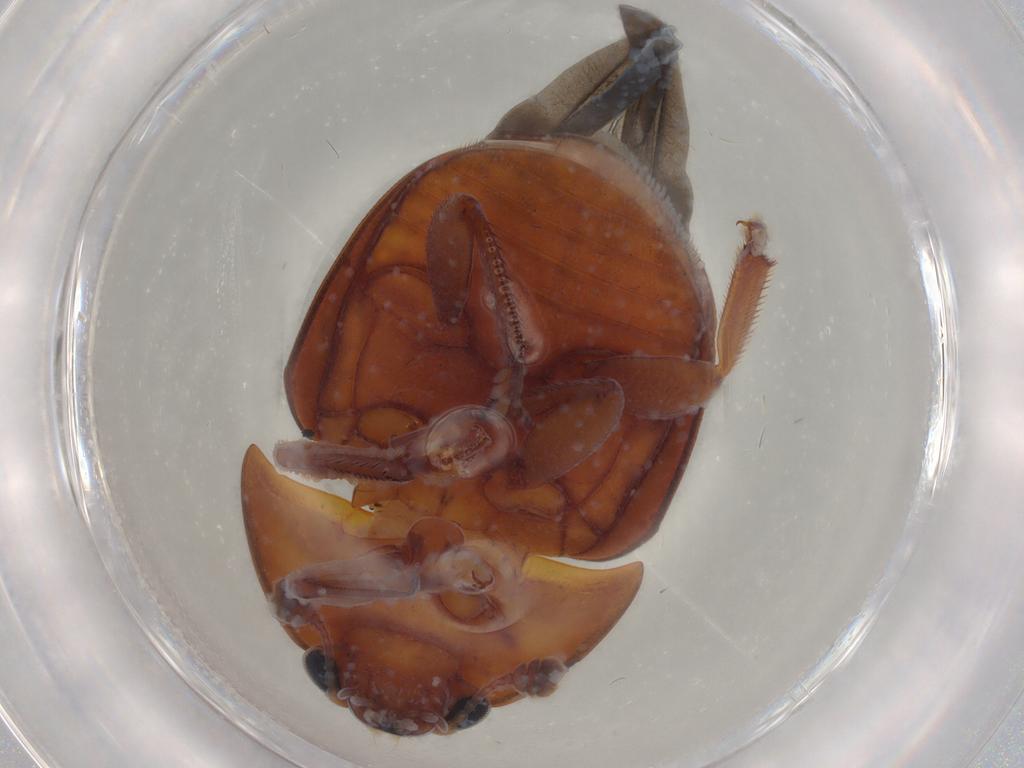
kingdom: Animalia
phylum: Arthropoda
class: Insecta
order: Coleoptera
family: Nitidulidae
